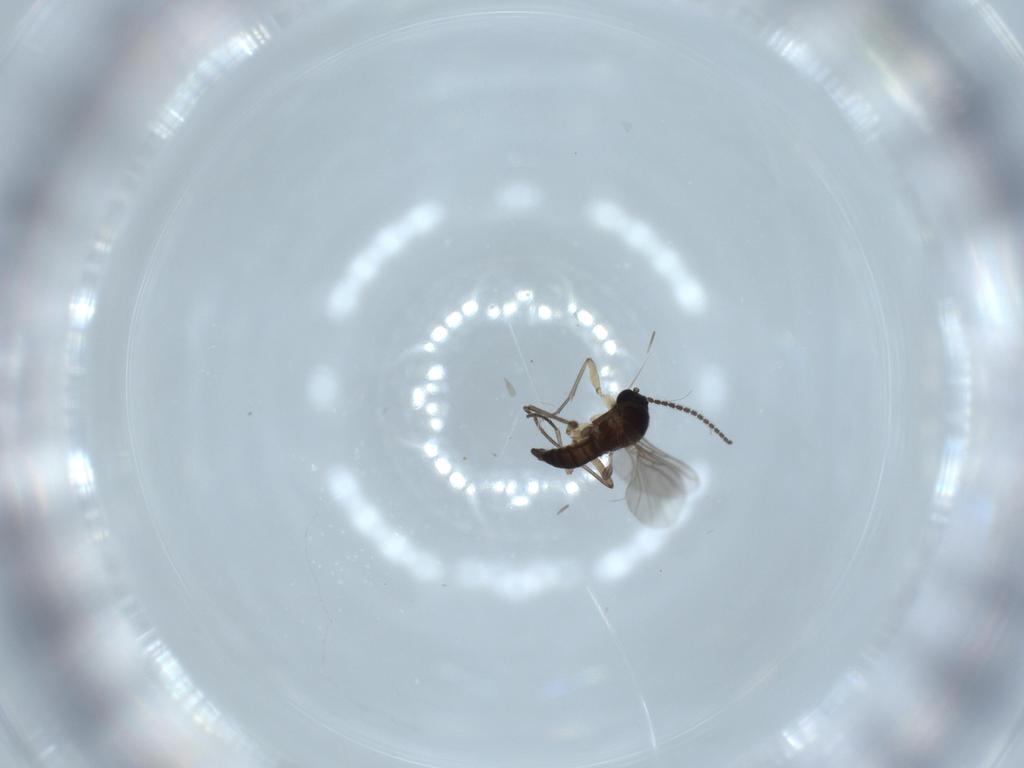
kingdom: Animalia
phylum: Arthropoda
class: Insecta
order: Diptera
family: Sciaridae
